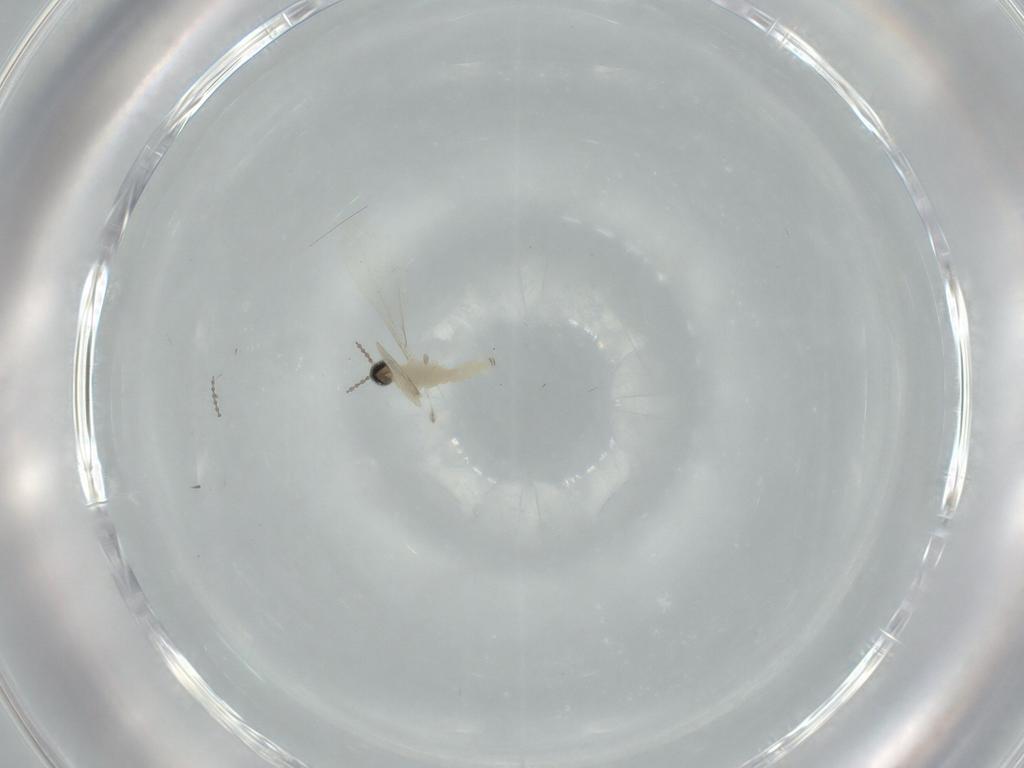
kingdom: Animalia
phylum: Arthropoda
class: Insecta
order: Diptera
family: Cecidomyiidae
